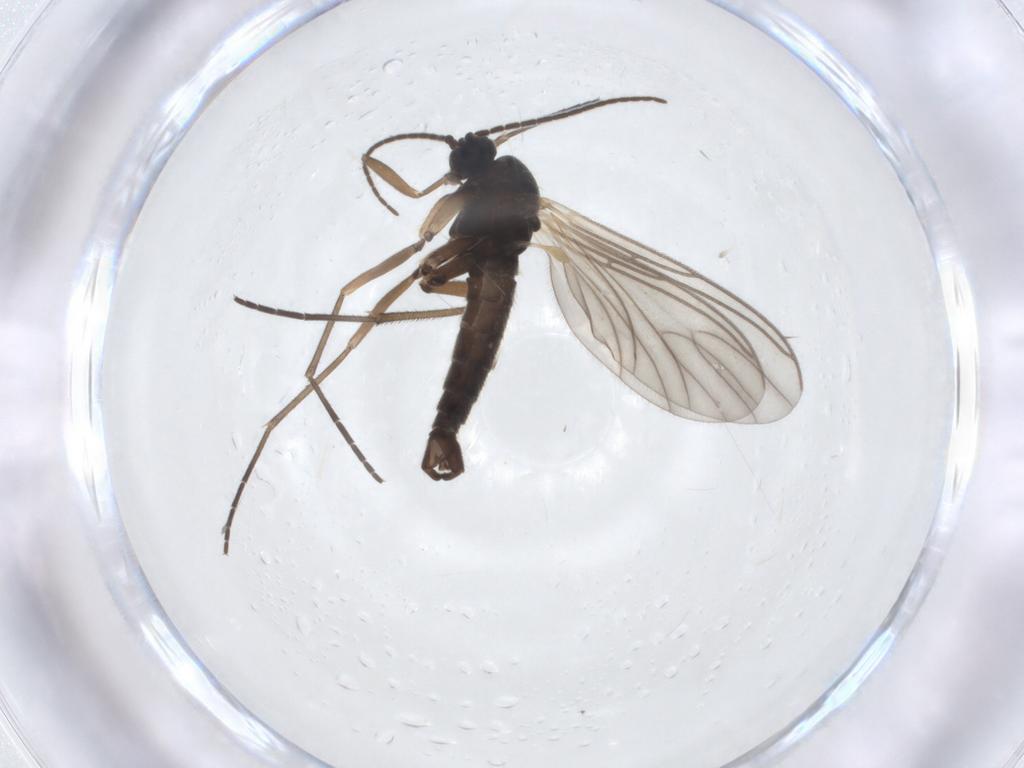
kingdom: Animalia
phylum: Arthropoda
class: Insecta
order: Diptera
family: Sciaridae
